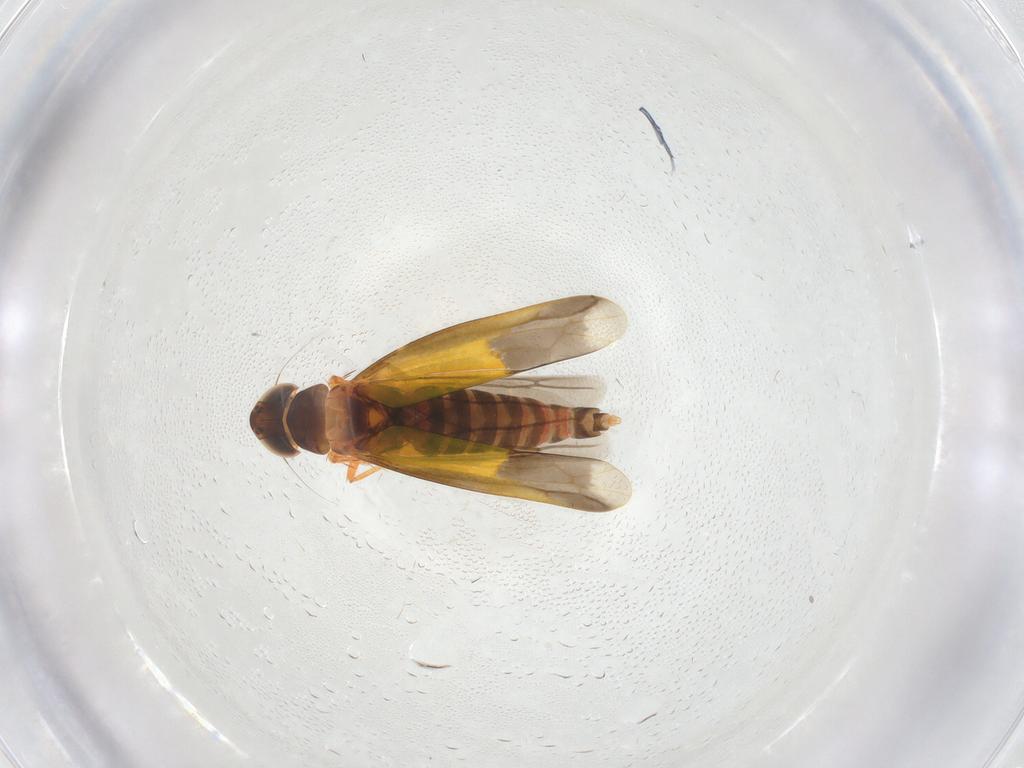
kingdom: Animalia
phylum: Arthropoda
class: Insecta
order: Hemiptera
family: Cicadellidae
